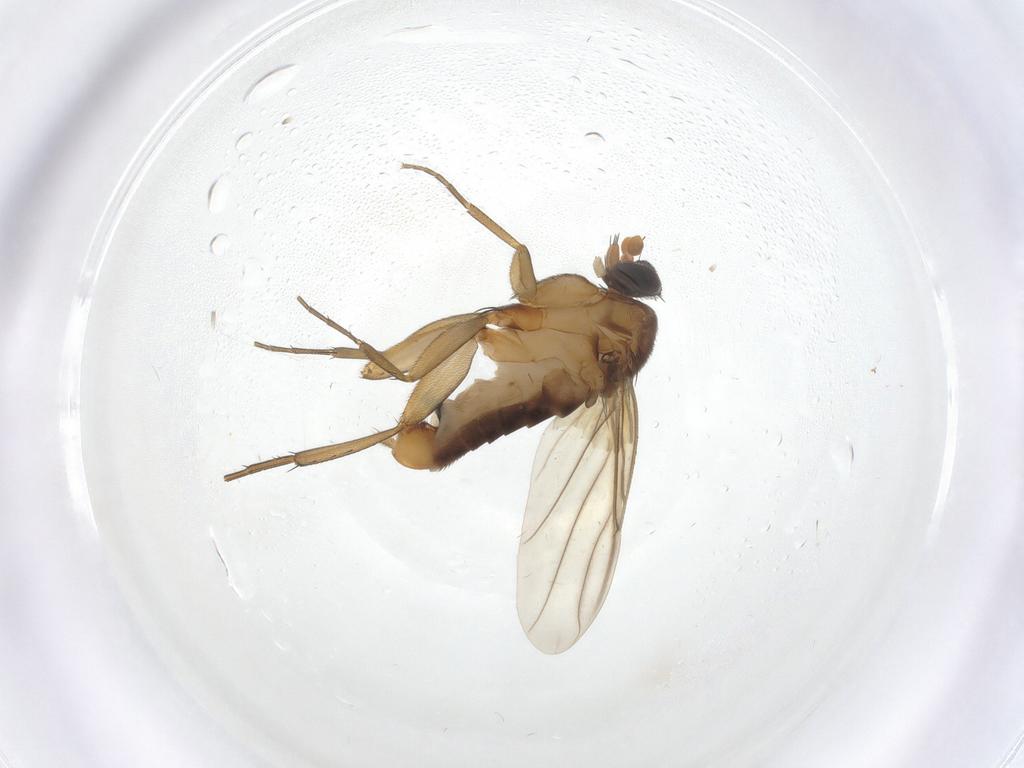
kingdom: Animalia
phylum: Arthropoda
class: Insecta
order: Diptera
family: Phoridae
